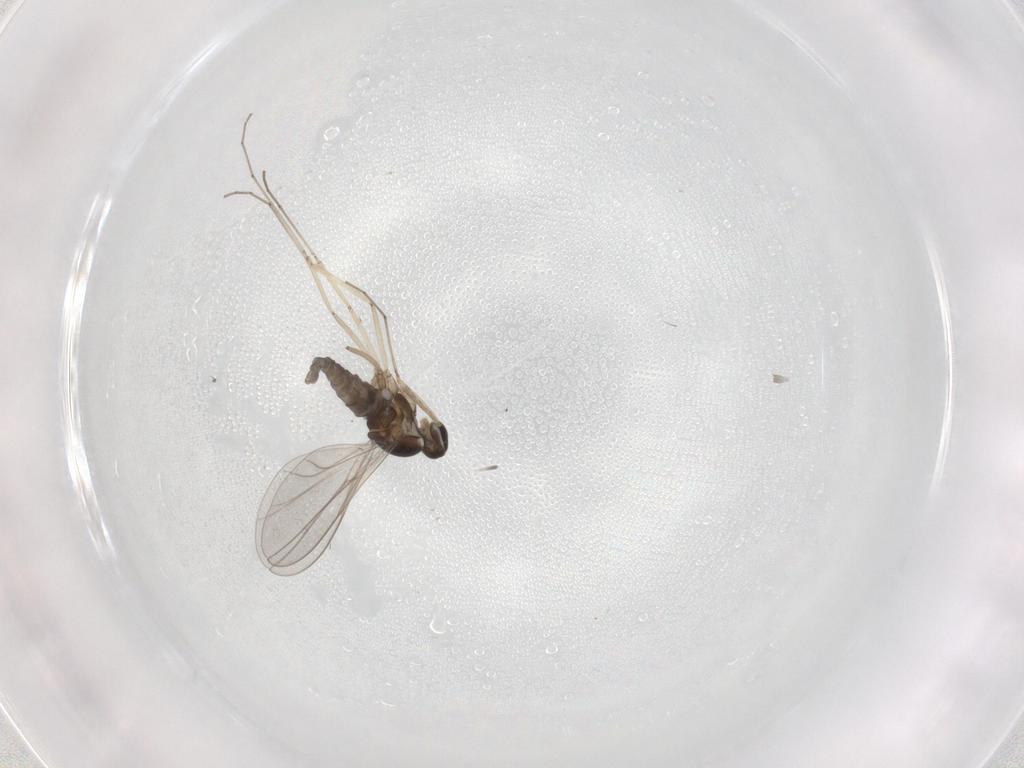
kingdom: Animalia
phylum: Arthropoda
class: Insecta
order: Diptera
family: Cecidomyiidae
